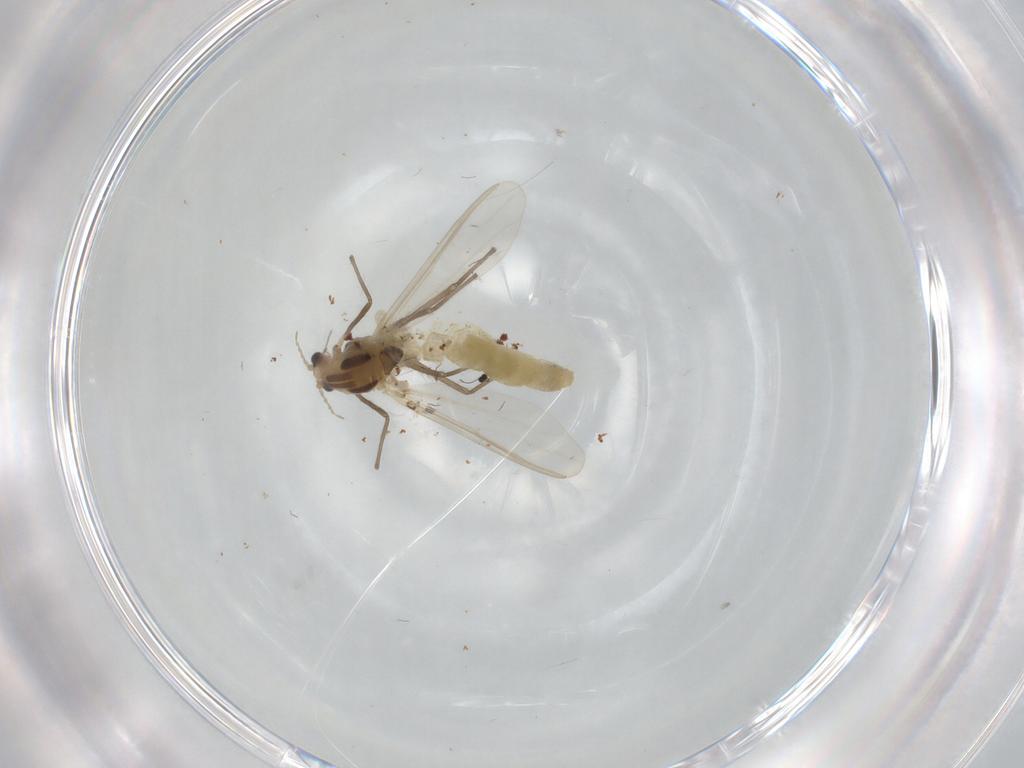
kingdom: Animalia
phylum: Arthropoda
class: Insecta
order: Diptera
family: Chironomidae
